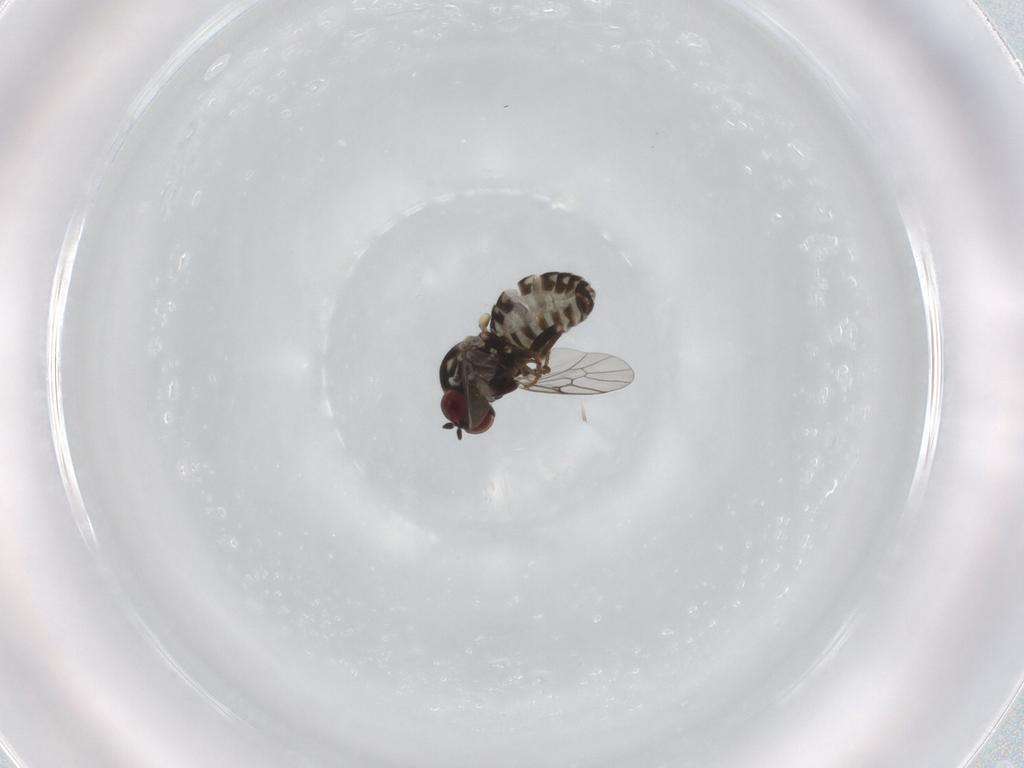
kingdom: Animalia
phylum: Arthropoda
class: Insecta
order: Diptera
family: Bombyliidae
